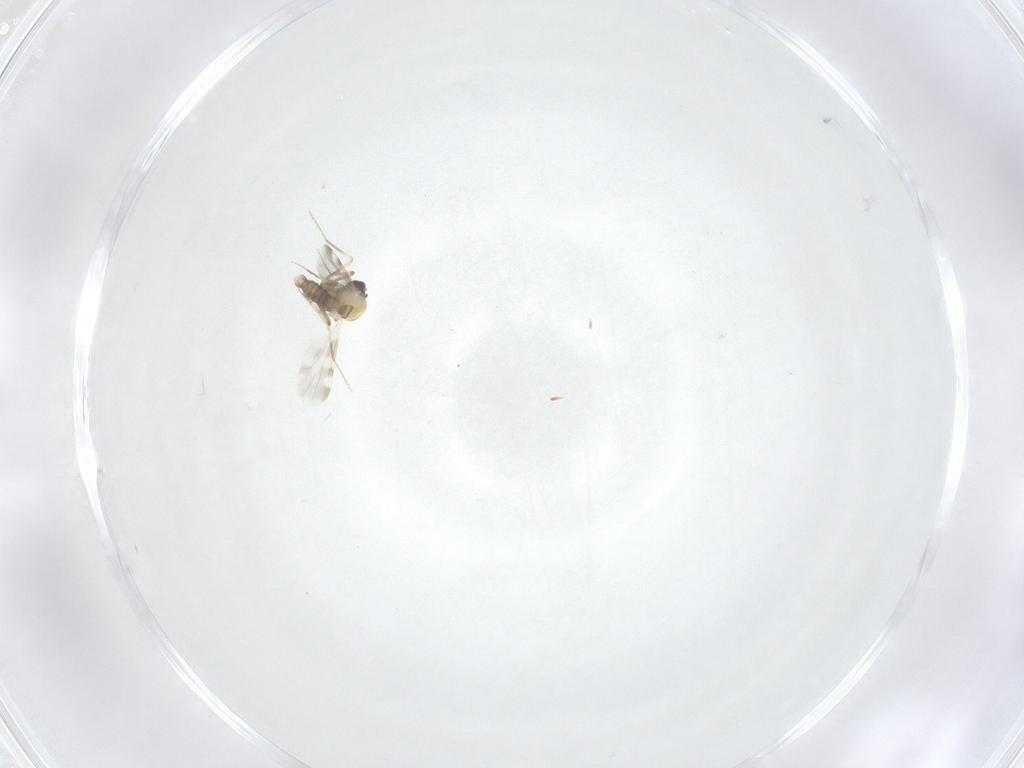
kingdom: Animalia
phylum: Arthropoda
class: Insecta
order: Diptera
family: Ceratopogonidae
